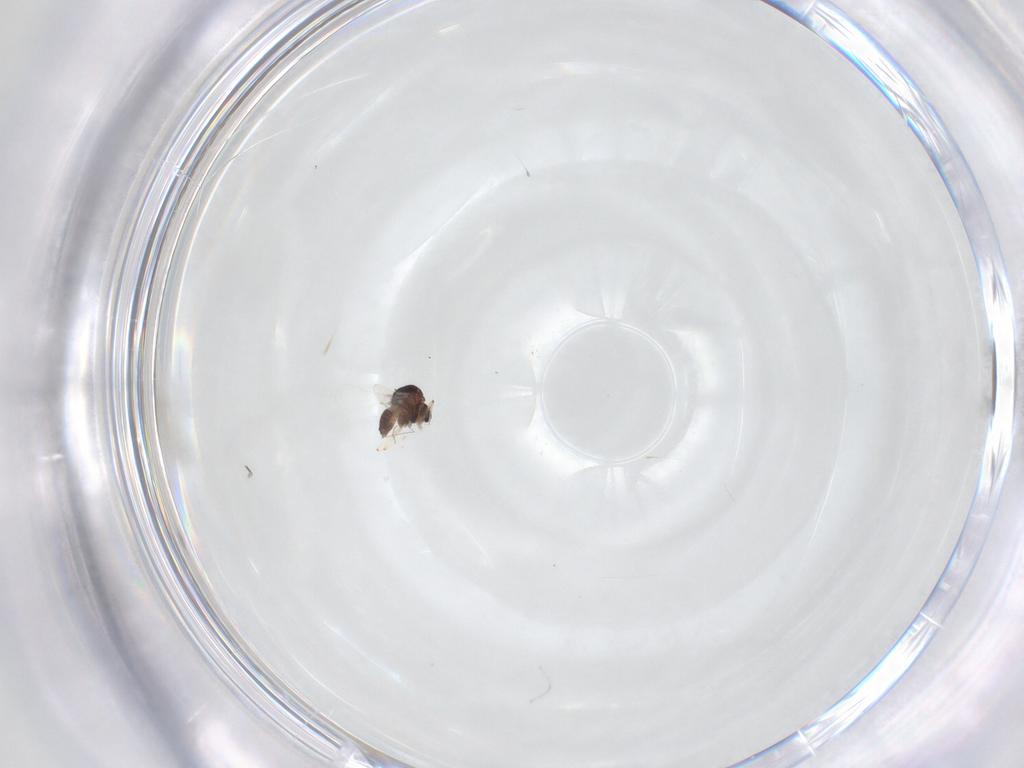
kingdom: Animalia
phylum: Arthropoda
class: Insecta
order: Diptera
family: Chironomidae
